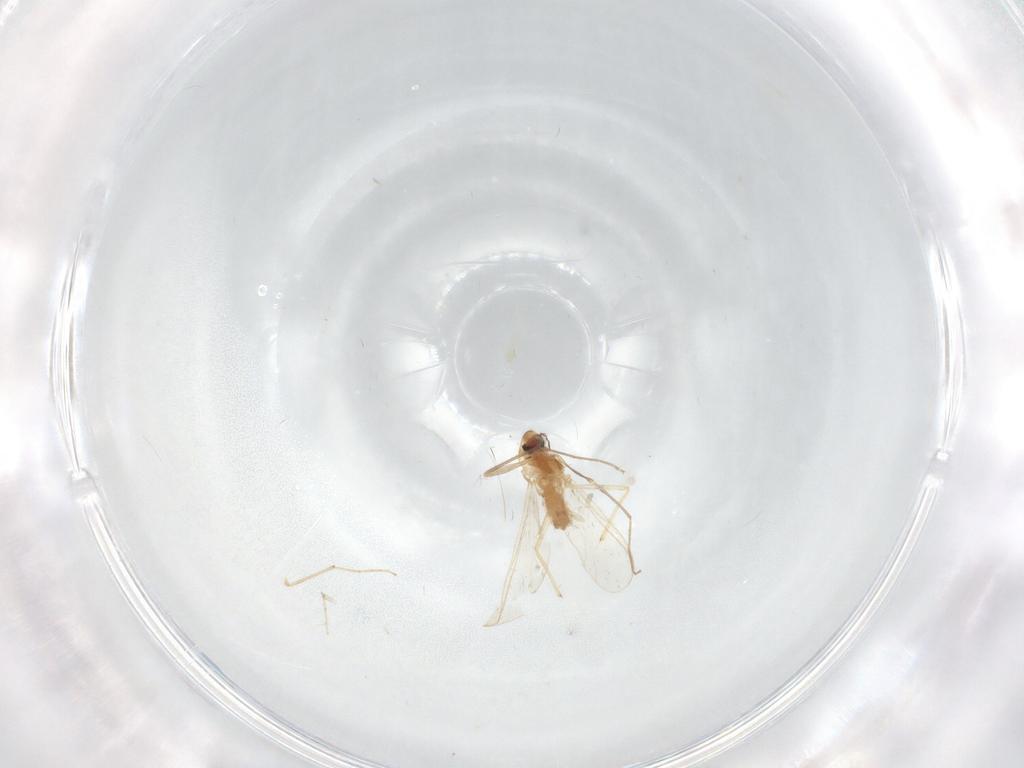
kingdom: Animalia
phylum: Arthropoda
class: Insecta
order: Diptera
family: Chironomidae
